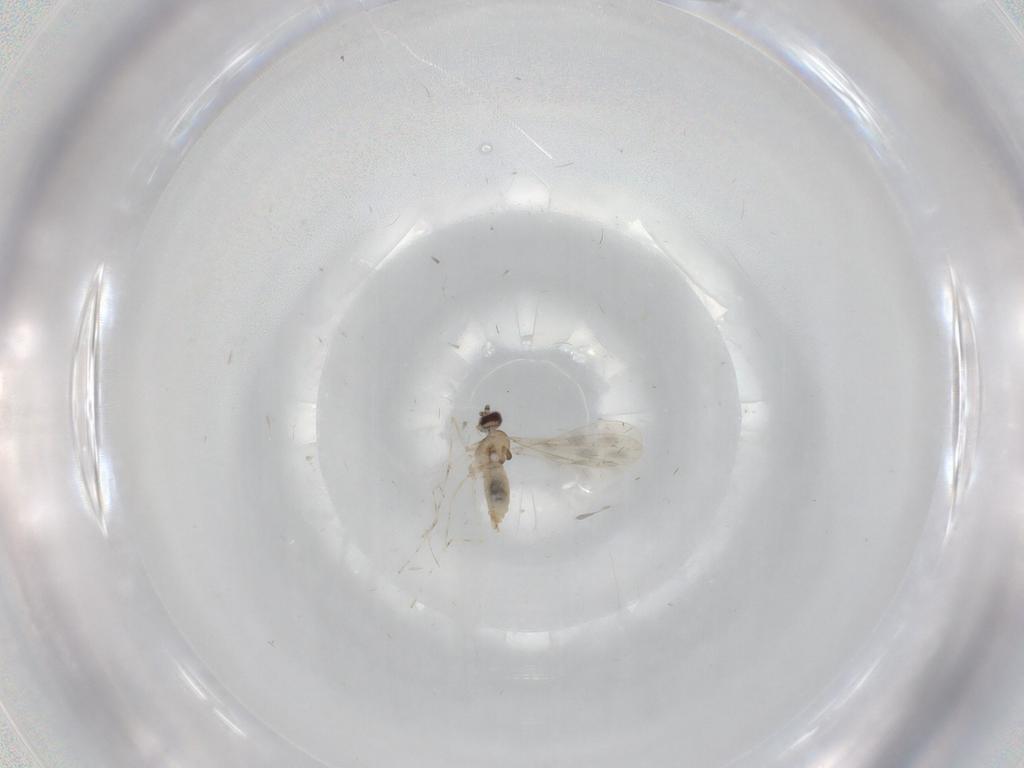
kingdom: Animalia
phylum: Arthropoda
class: Insecta
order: Diptera
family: Cecidomyiidae
